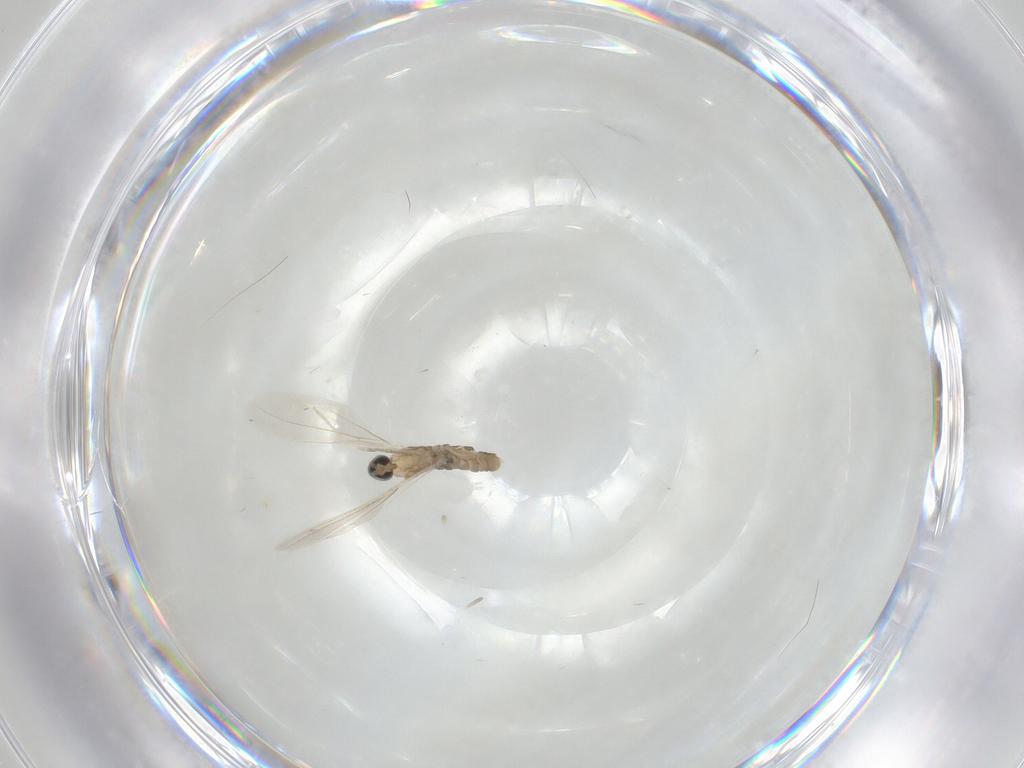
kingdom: Animalia
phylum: Arthropoda
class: Insecta
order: Diptera
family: Cecidomyiidae
